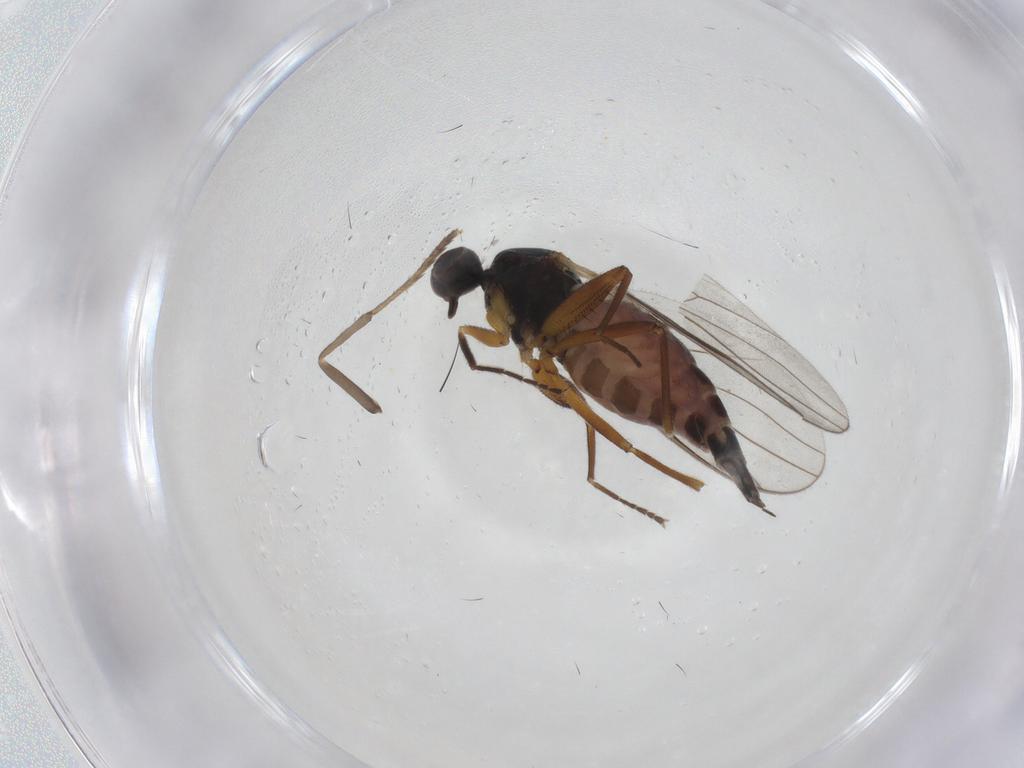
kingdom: Animalia
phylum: Arthropoda
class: Insecta
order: Diptera
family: Hybotidae
